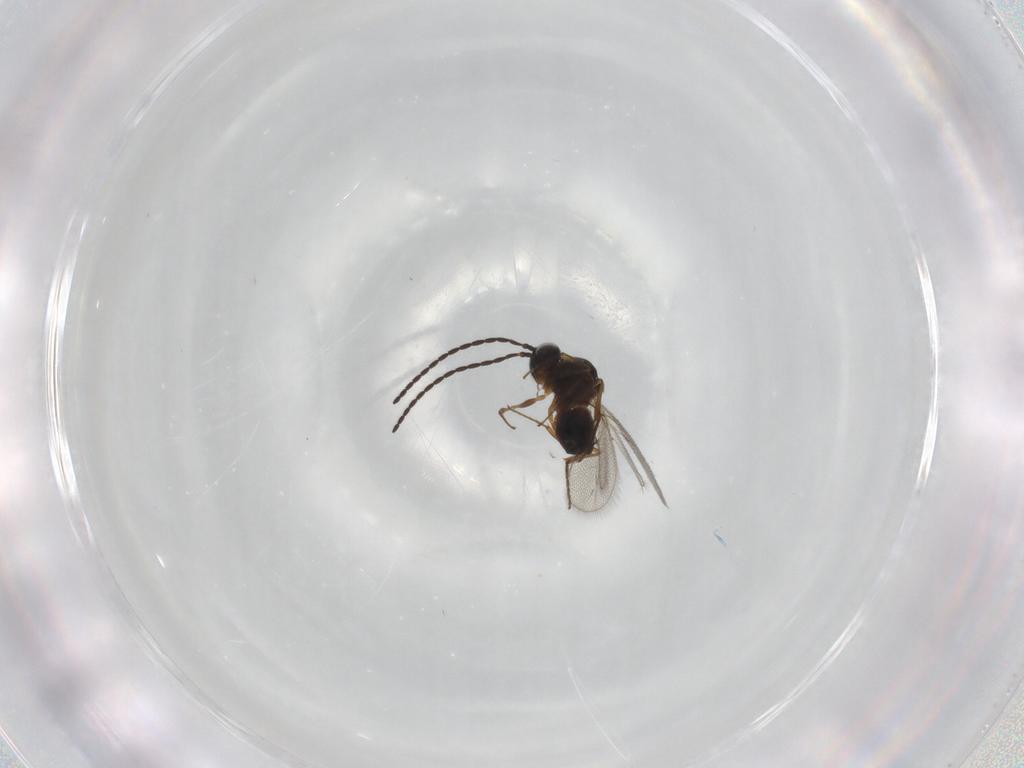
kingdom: Animalia
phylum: Arthropoda
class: Insecta
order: Hymenoptera
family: Figitidae
